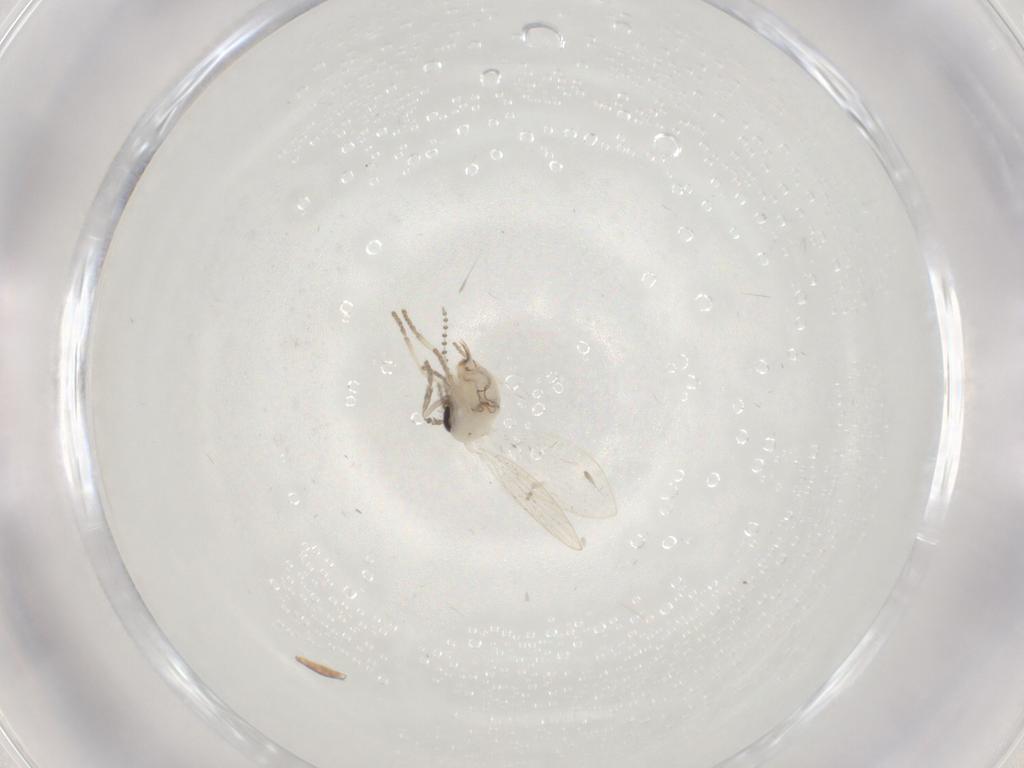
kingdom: Animalia
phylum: Arthropoda
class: Insecta
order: Diptera
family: Psychodidae
